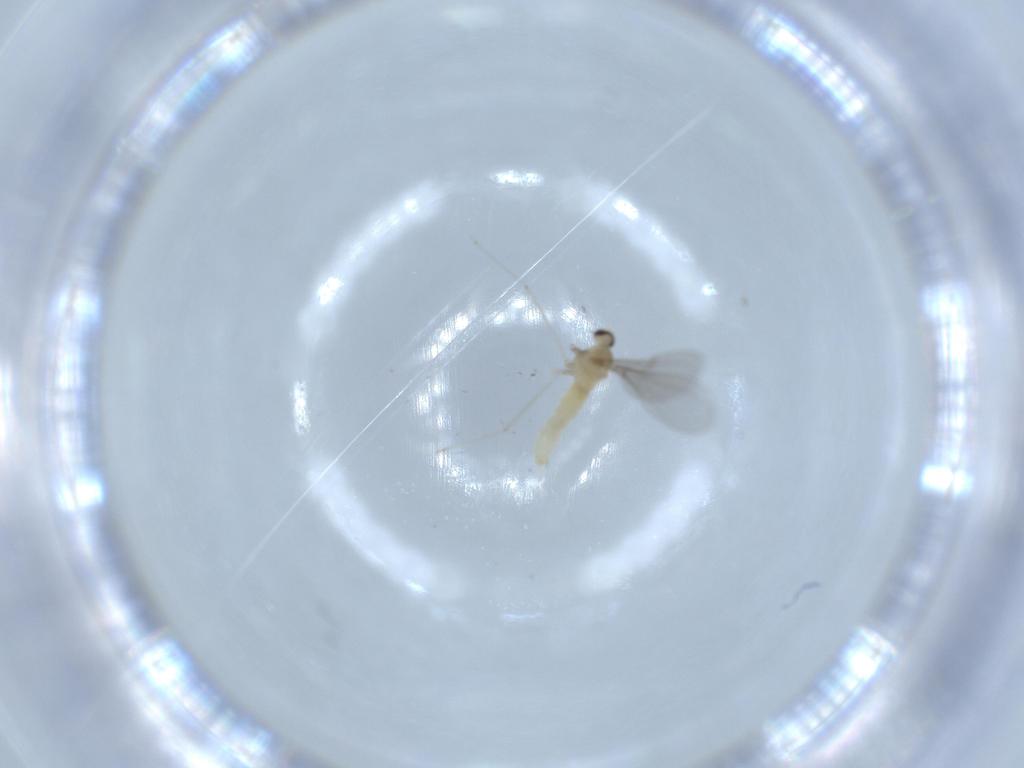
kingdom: Animalia
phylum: Arthropoda
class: Insecta
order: Diptera
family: Cecidomyiidae
